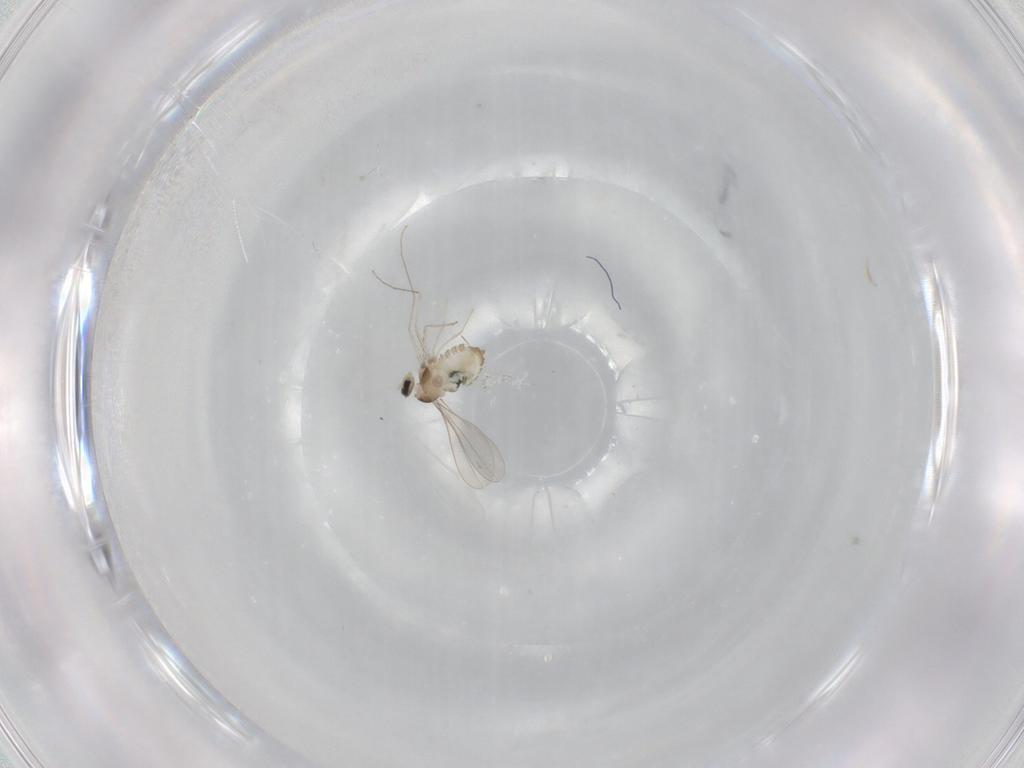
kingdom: Animalia
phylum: Arthropoda
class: Insecta
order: Diptera
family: Cecidomyiidae
